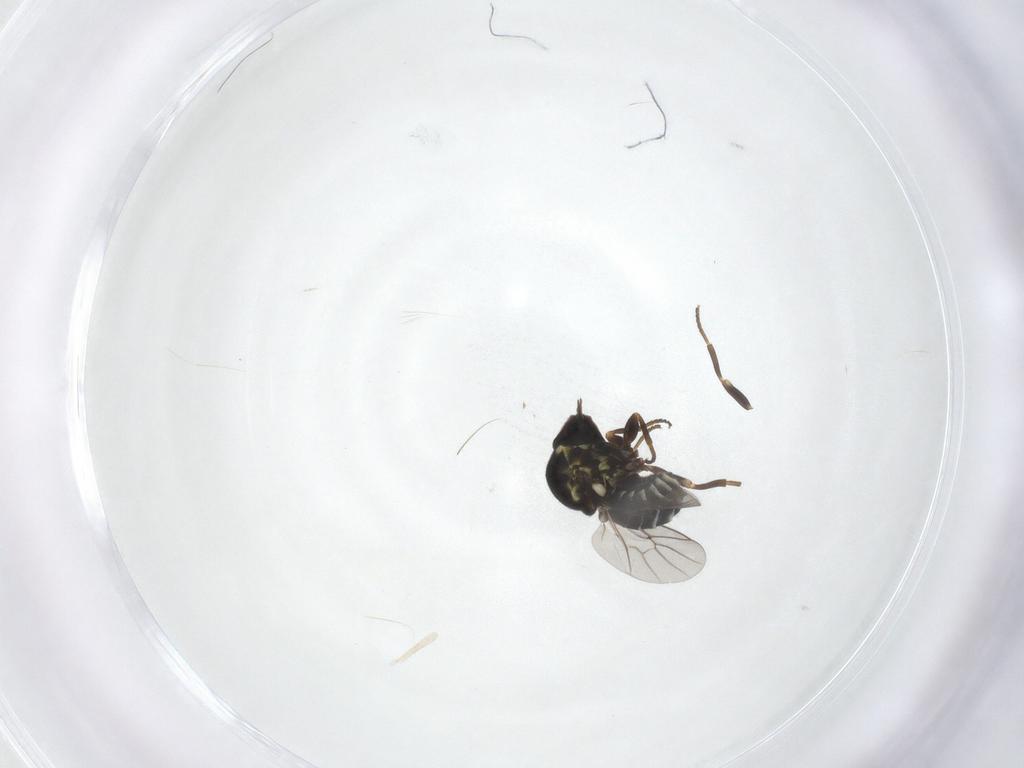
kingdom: Animalia
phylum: Arthropoda
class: Insecta
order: Diptera
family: Bombyliidae
